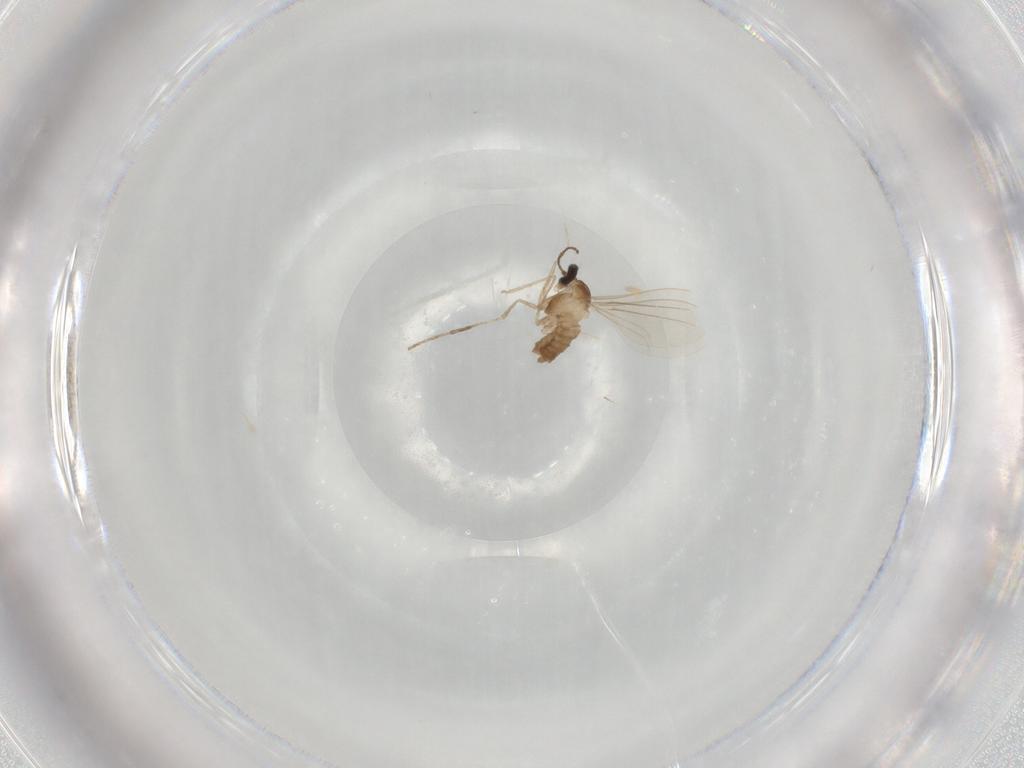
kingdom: Animalia
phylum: Arthropoda
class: Insecta
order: Diptera
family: Cecidomyiidae
